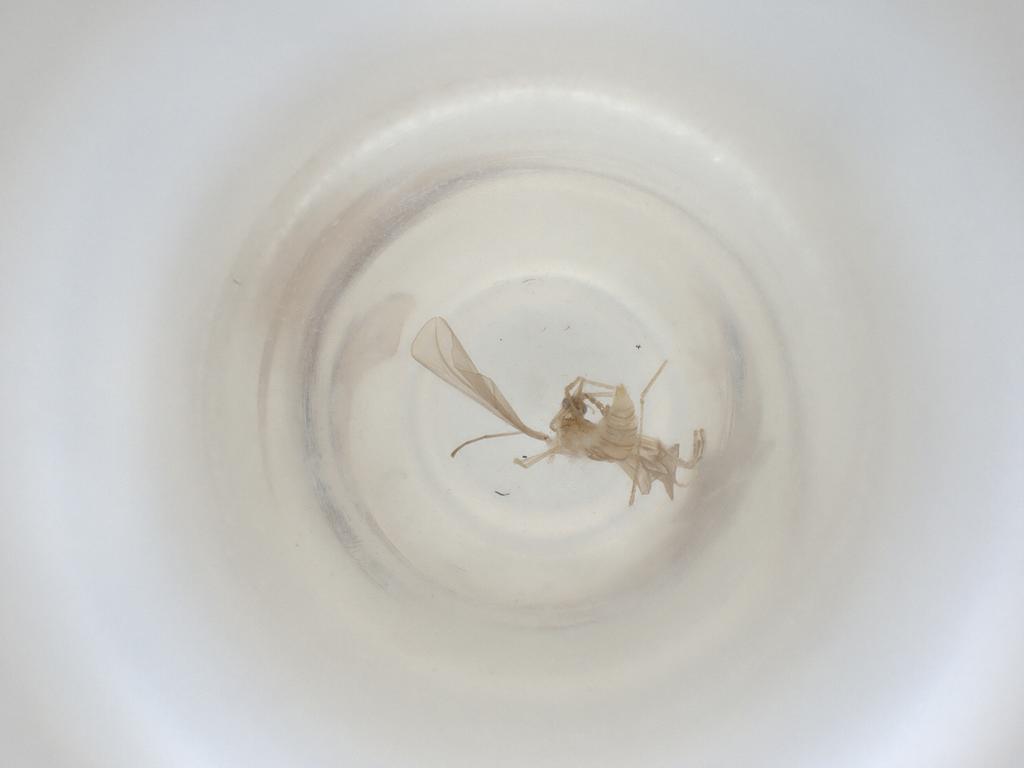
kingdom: Animalia
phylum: Arthropoda
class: Insecta
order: Diptera
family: Cecidomyiidae
